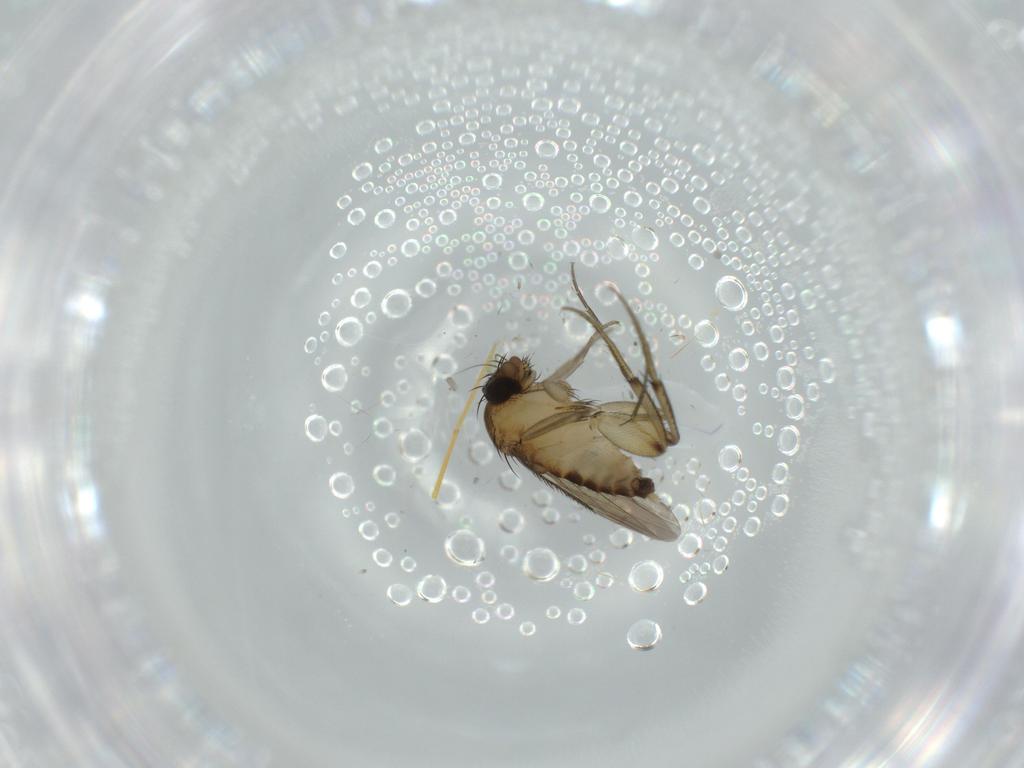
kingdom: Animalia
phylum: Arthropoda
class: Insecta
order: Diptera
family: Phoridae
